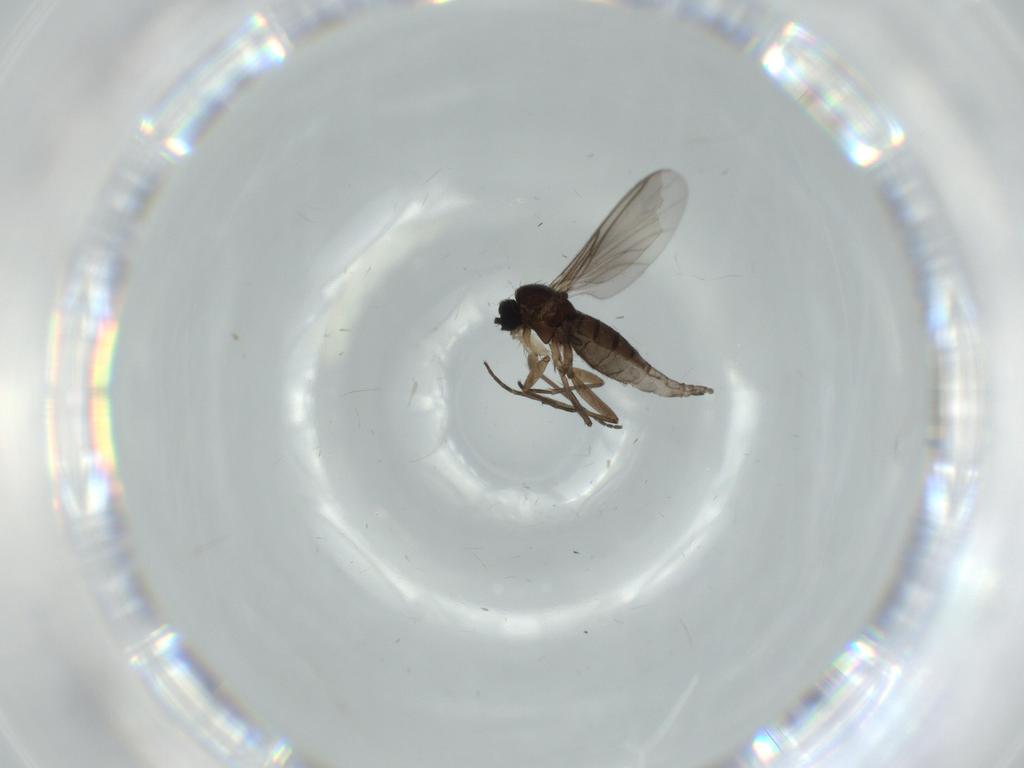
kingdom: Animalia
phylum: Arthropoda
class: Insecta
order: Diptera
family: Sciaridae
